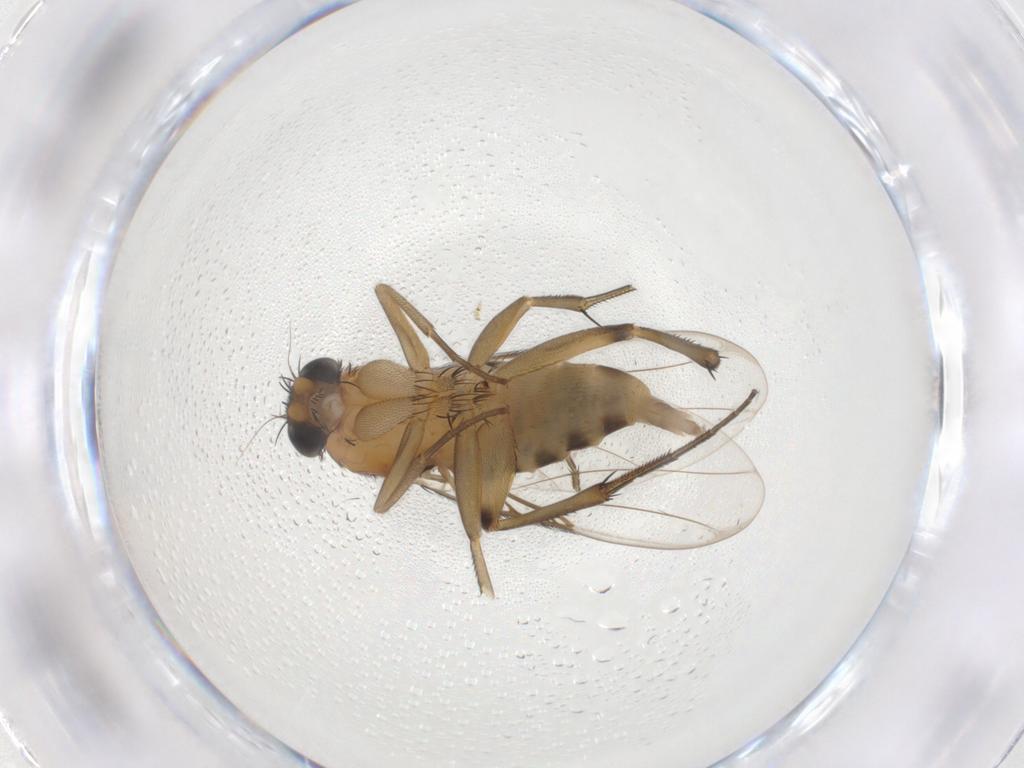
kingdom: Animalia
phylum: Arthropoda
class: Insecta
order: Diptera
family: Phoridae
